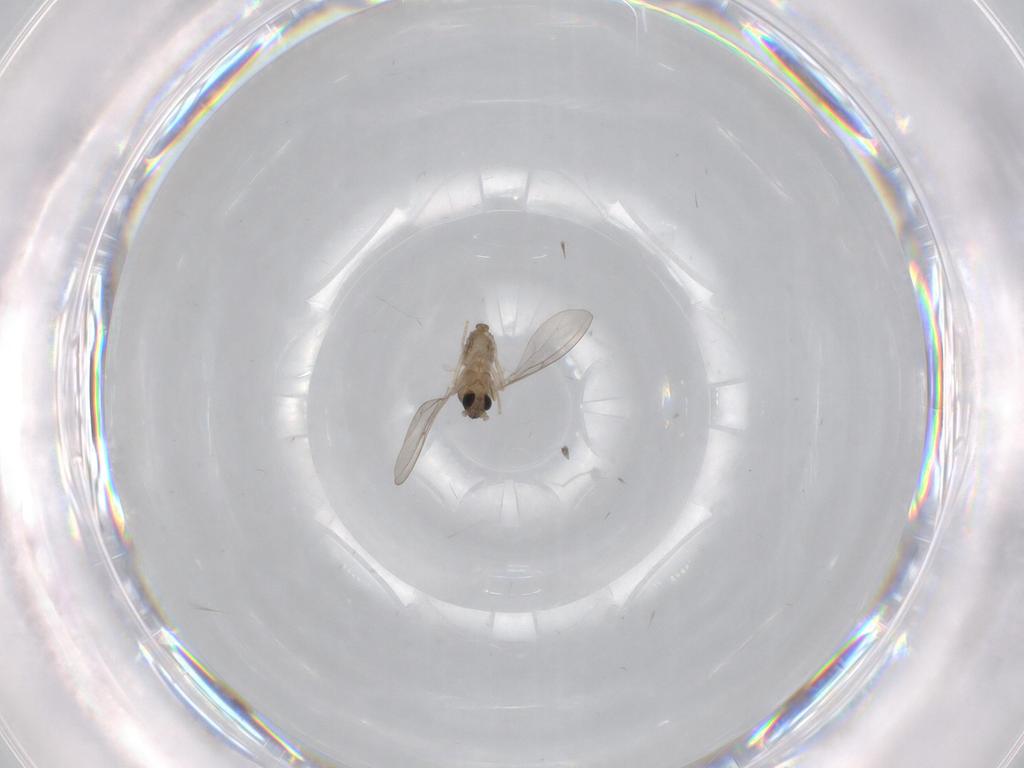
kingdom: Animalia
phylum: Arthropoda
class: Insecta
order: Diptera
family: Cecidomyiidae
